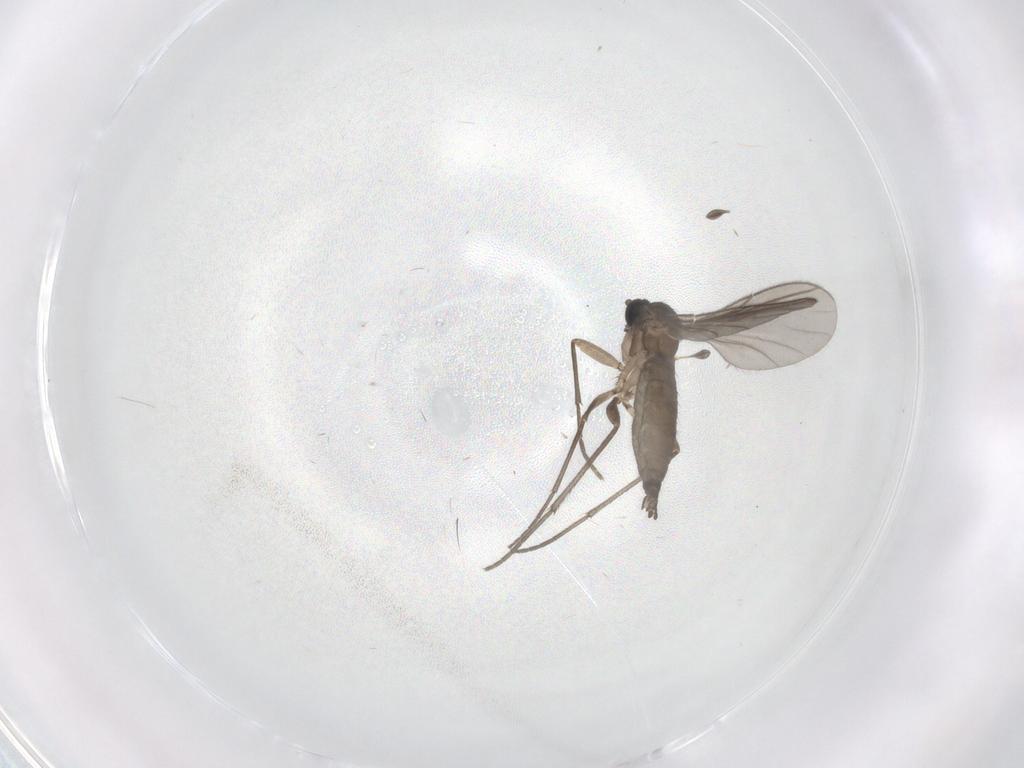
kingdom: Animalia
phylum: Arthropoda
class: Insecta
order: Diptera
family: Sciaridae
